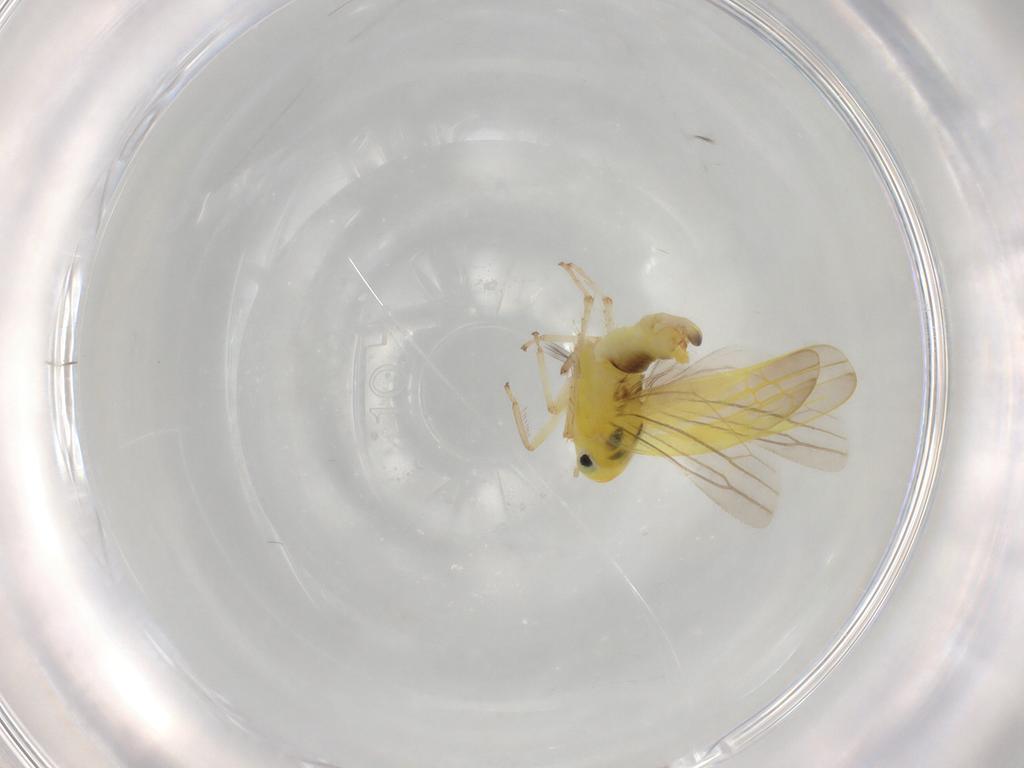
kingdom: Animalia
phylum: Arthropoda
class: Insecta
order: Hemiptera
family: Cicadellidae
